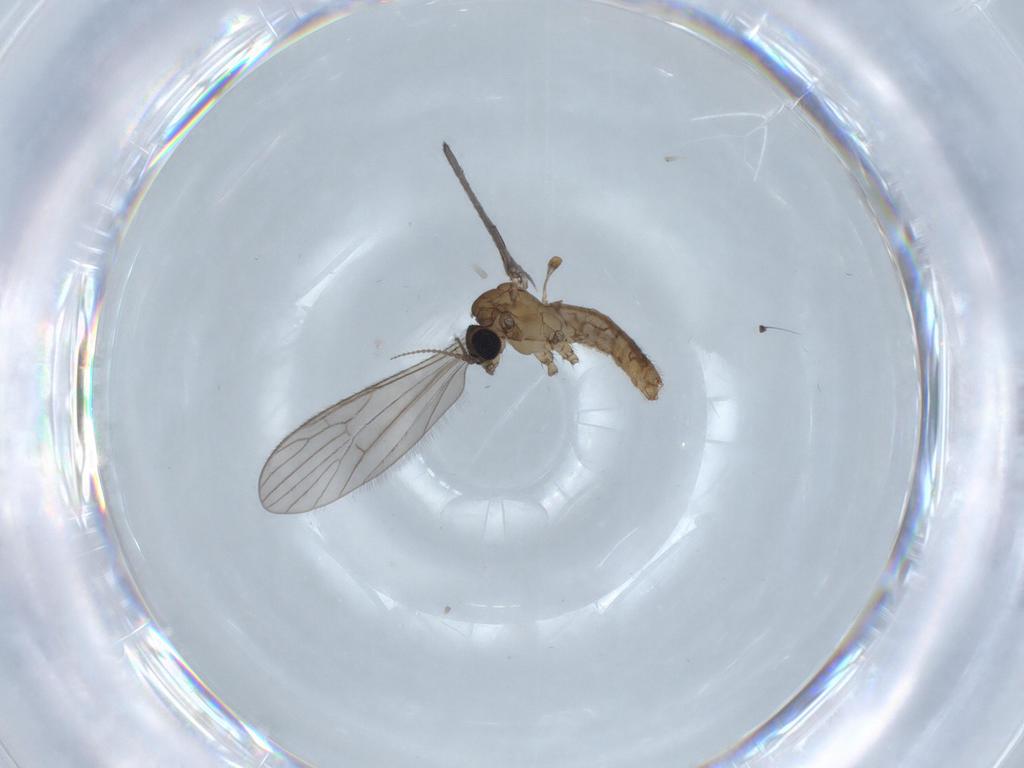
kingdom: Animalia
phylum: Arthropoda
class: Insecta
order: Diptera
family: Limoniidae
